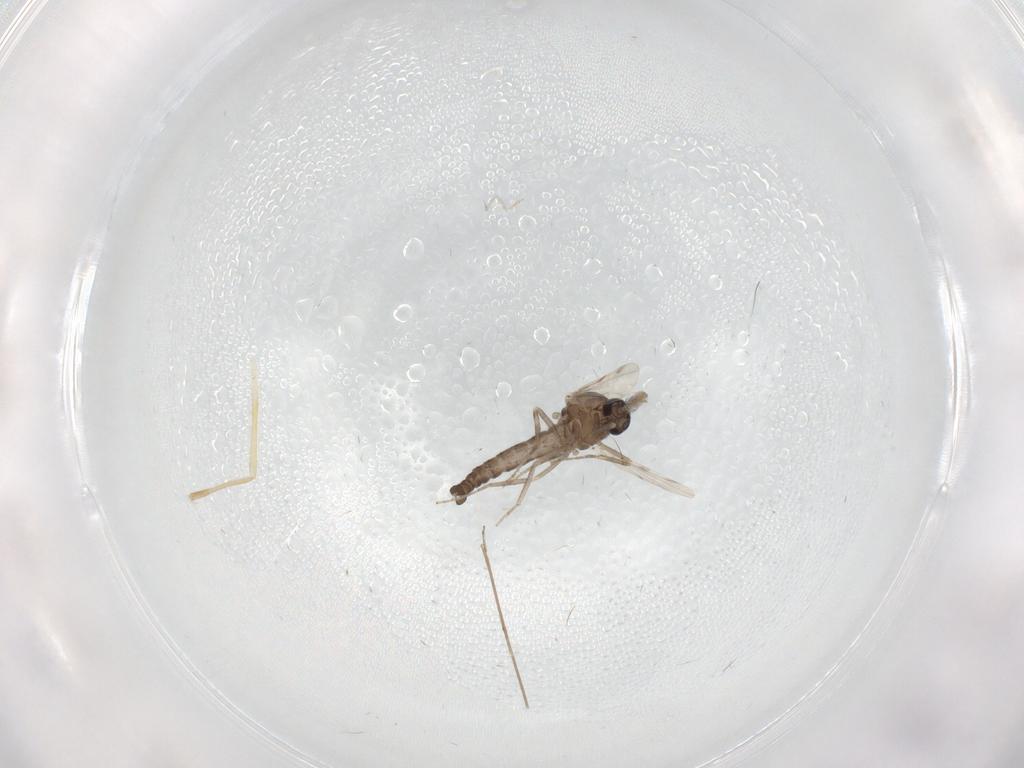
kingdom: Animalia
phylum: Arthropoda
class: Insecta
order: Diptera
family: Ceratopogonidae
